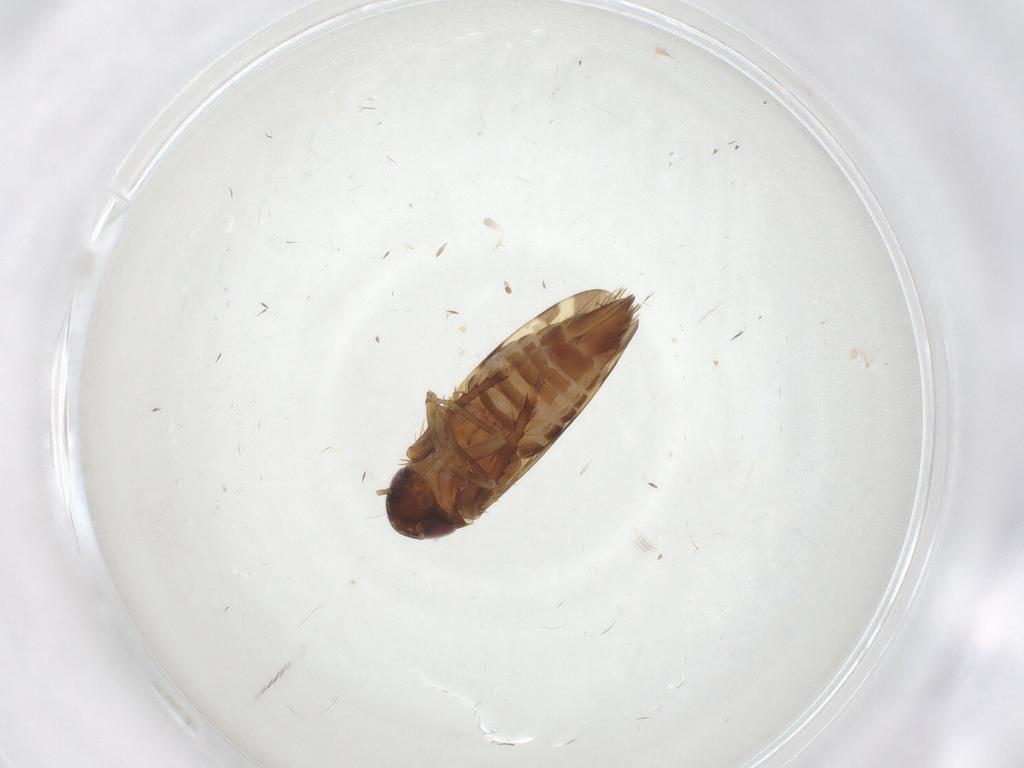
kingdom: Animalia
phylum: Arthropoda
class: Insecta
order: Hemiptera
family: Cicadellidae
